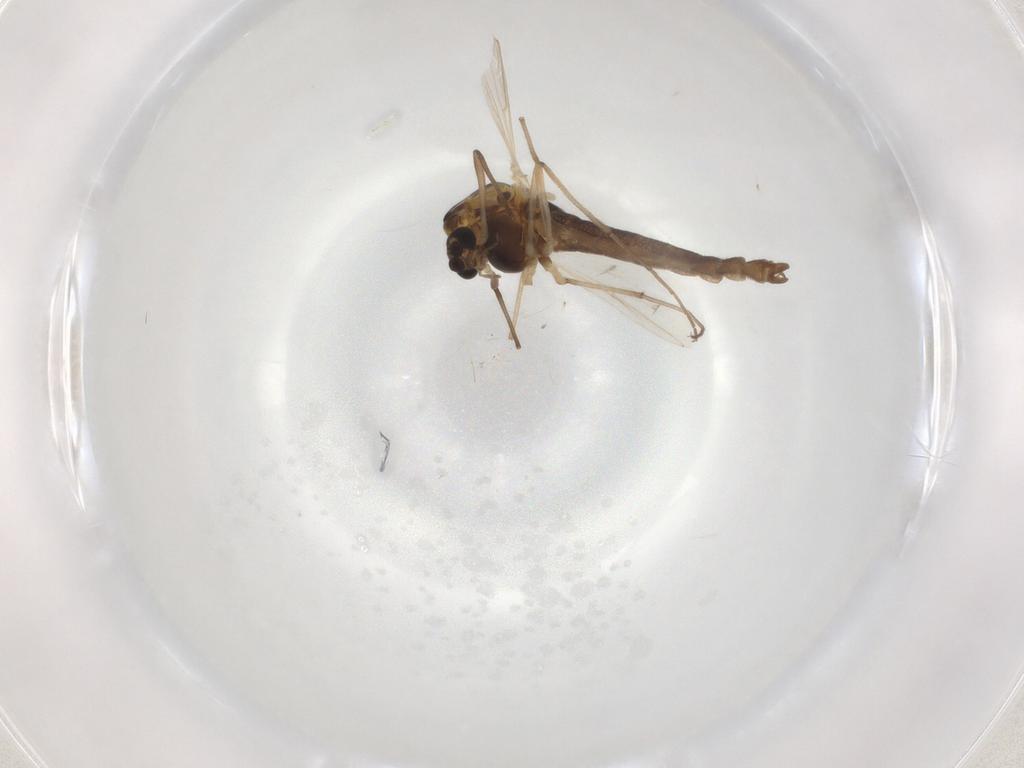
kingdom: Animalia
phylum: Arthropoda
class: Insecta
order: Diptera
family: Chironomidae
